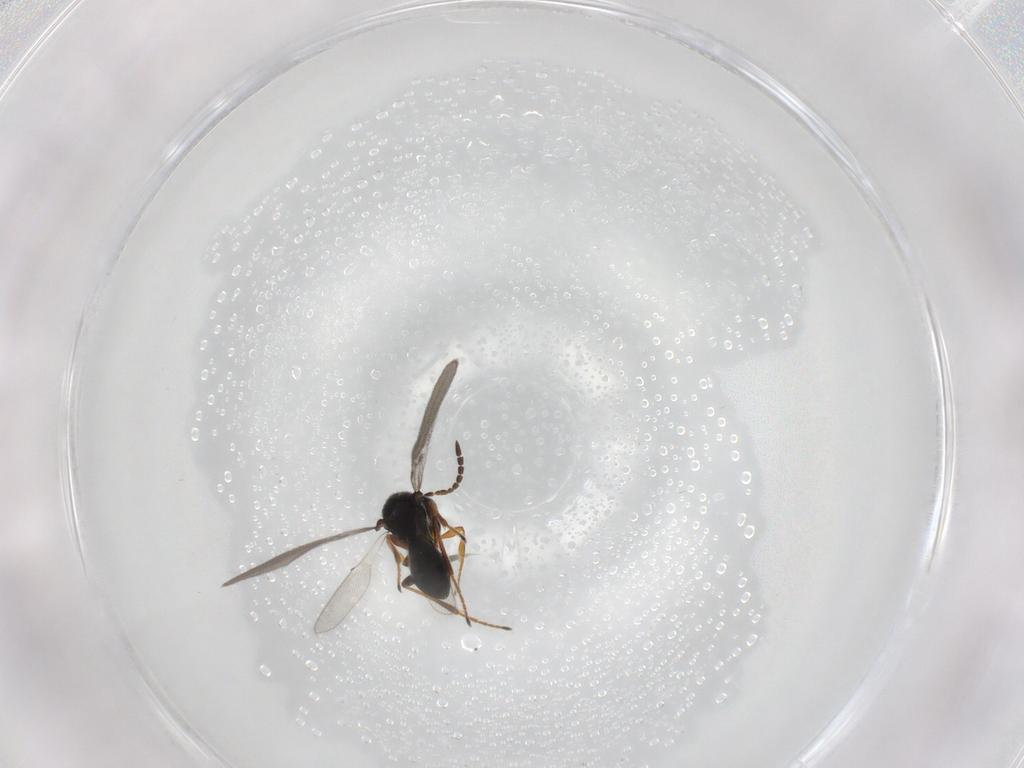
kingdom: Animalia
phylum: Arthropoda
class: Insecta
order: Hymenoptera
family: Platygastridae
